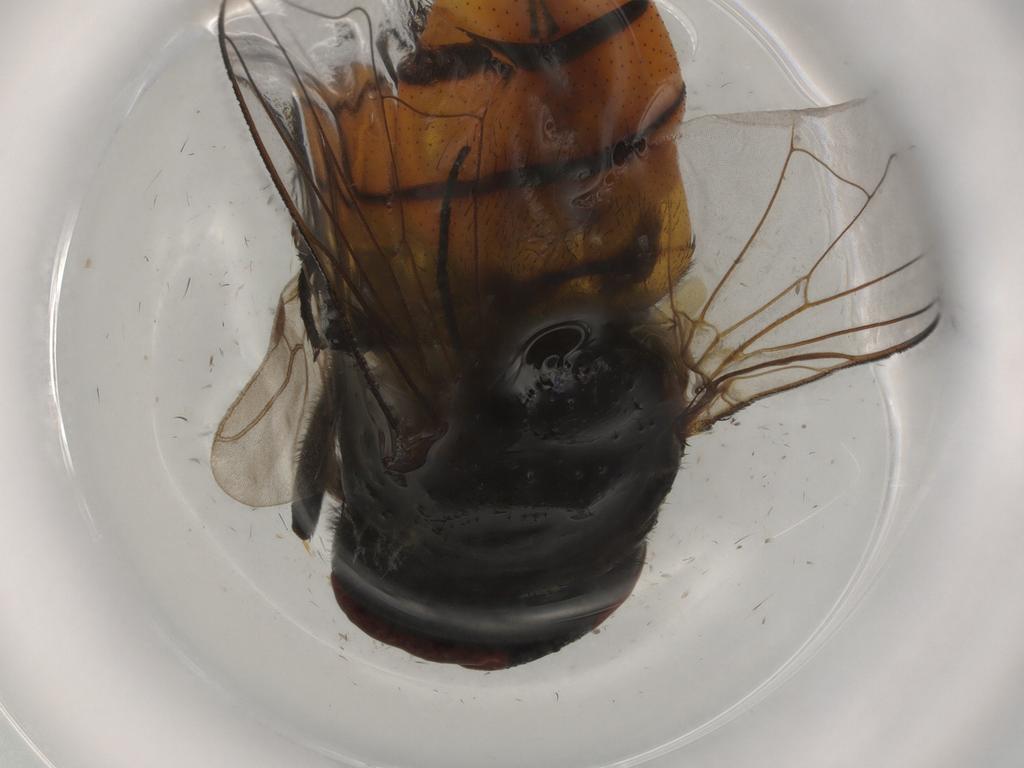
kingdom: Animalia
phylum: Arthropoda
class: Insecta
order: Diptera
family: Muscidae
